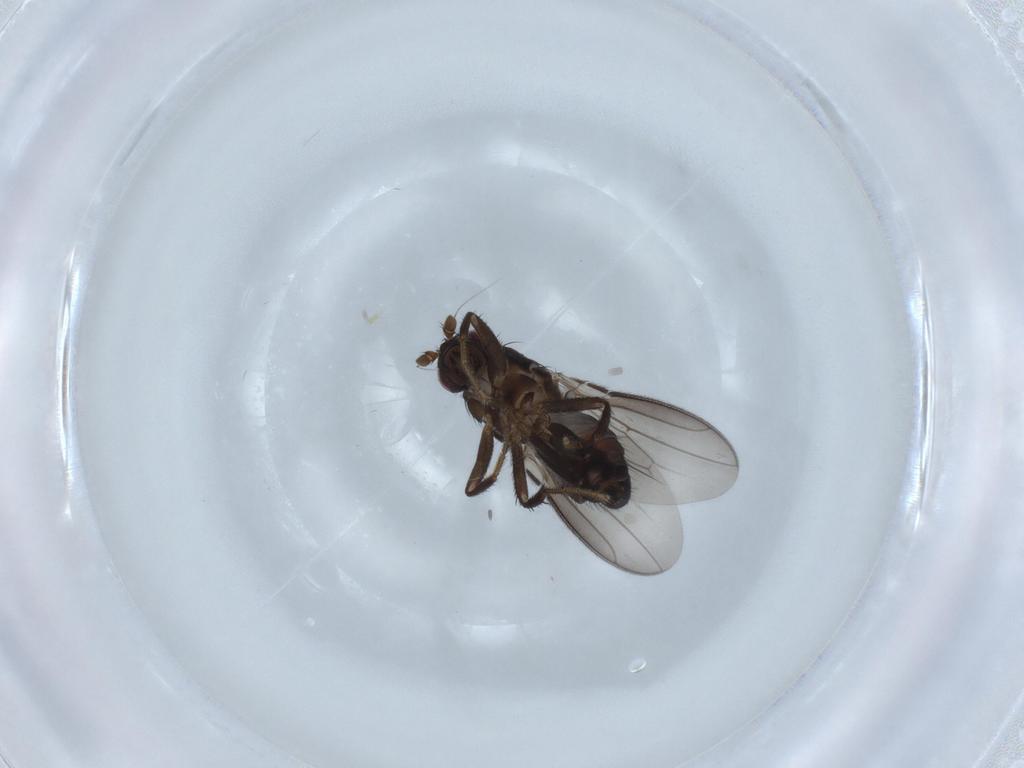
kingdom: Animalia
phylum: Arthropoda
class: Insecta
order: Diptera
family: Sphaeroceridae
